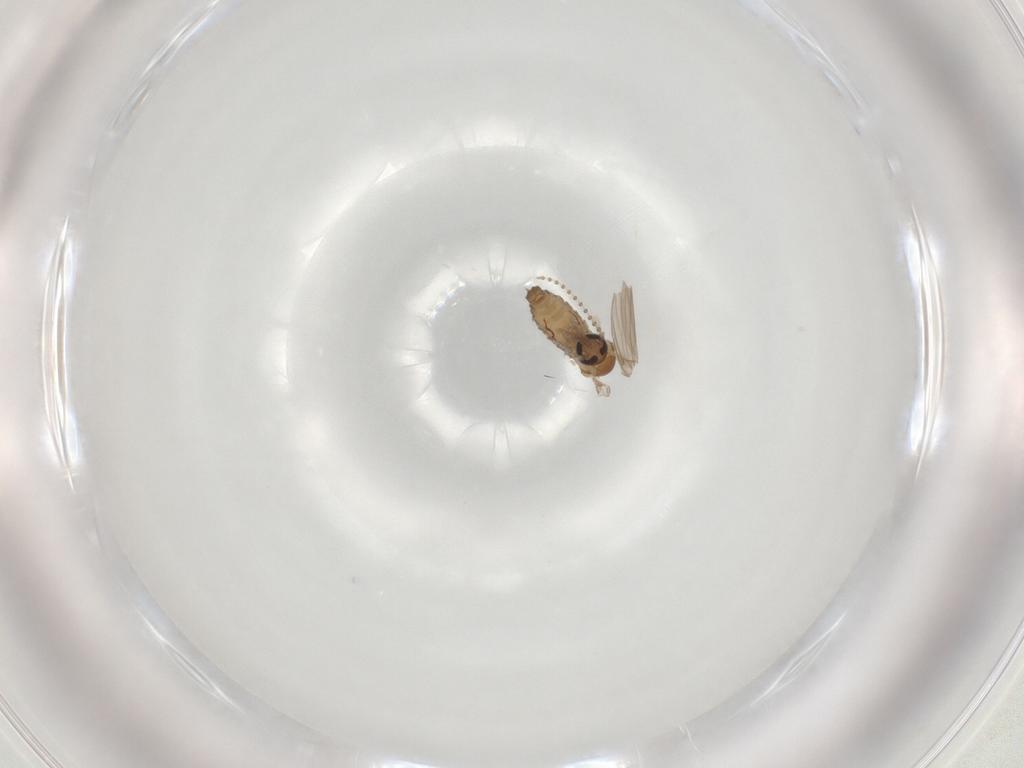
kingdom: Animalia
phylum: Arthropoda
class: Insecta
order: Diptera
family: Psychodidae
